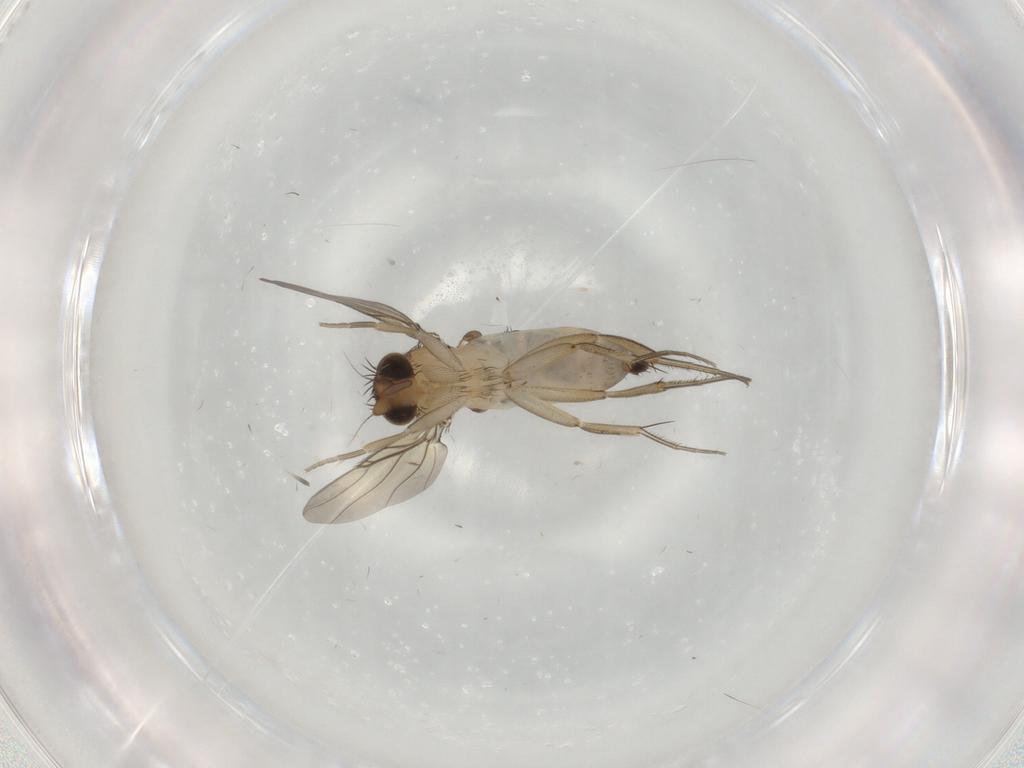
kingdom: Animalia
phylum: Arthropoda
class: Insecta
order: Diptera
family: Phoridae
